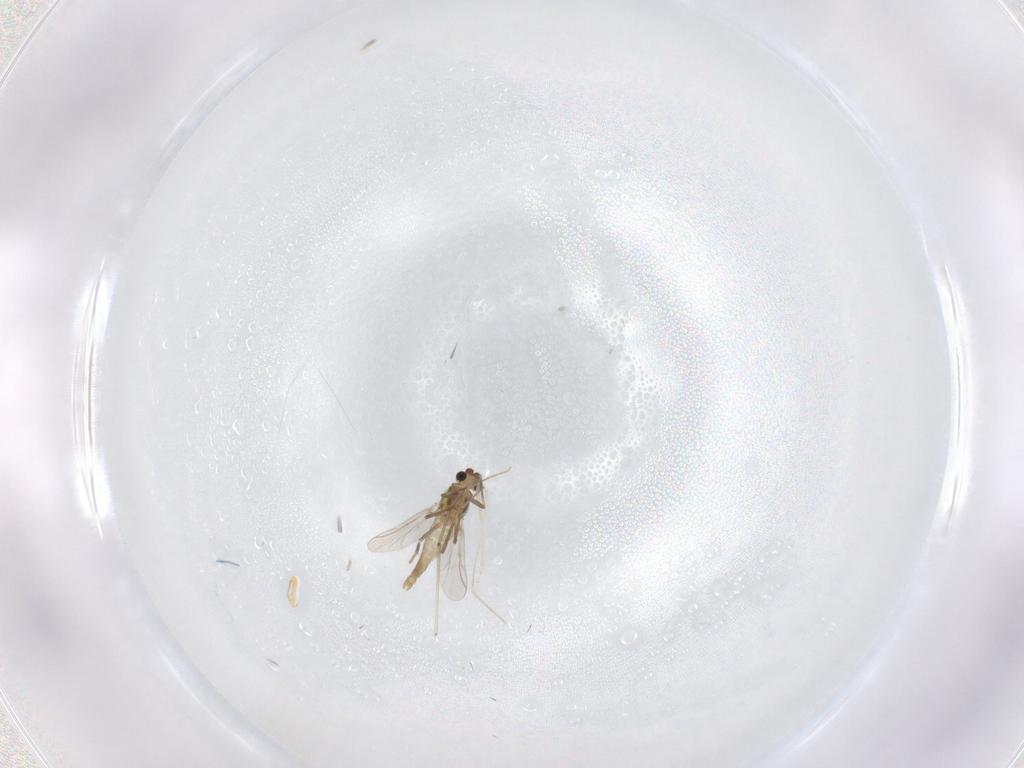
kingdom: Animalia
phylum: Arthropoda
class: Insecta
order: Diptera
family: Chironomidae
